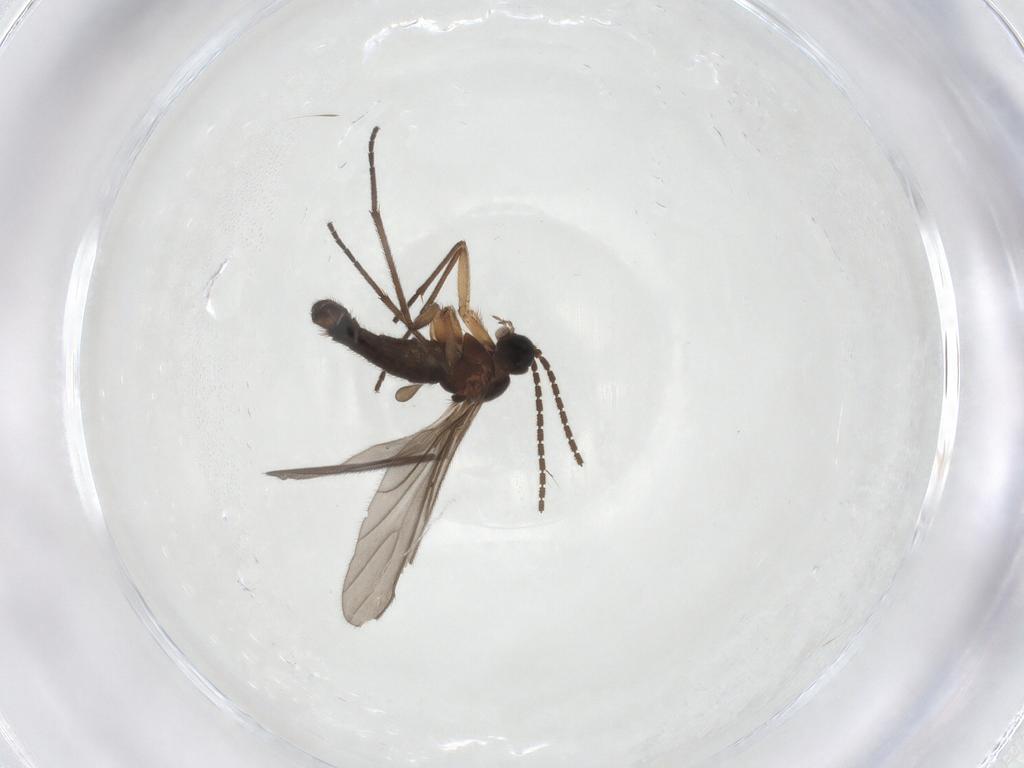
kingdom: Animalia
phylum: Arthropoda
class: Insecta
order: Diptera
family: Sciaridae
